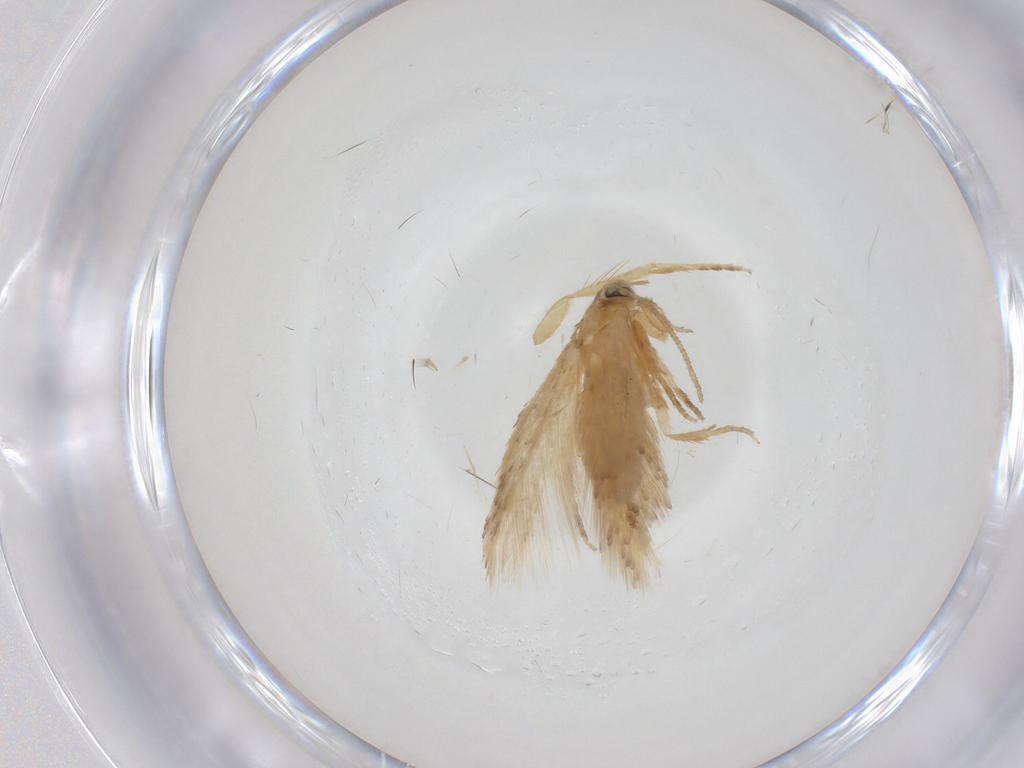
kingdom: Animalia
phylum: Arthropoda
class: Insecta
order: Lepidoptera
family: Nepticulidae
